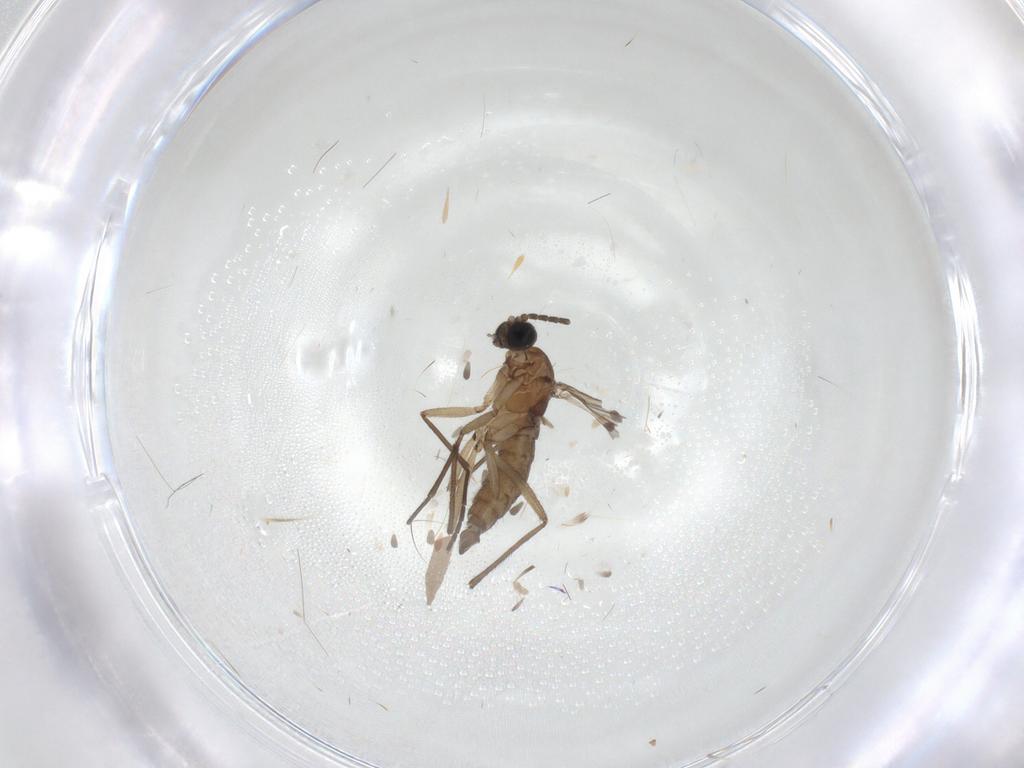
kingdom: Animalia
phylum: Arthropoda
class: Insecta
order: Diptera
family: Cecidomyiidae
